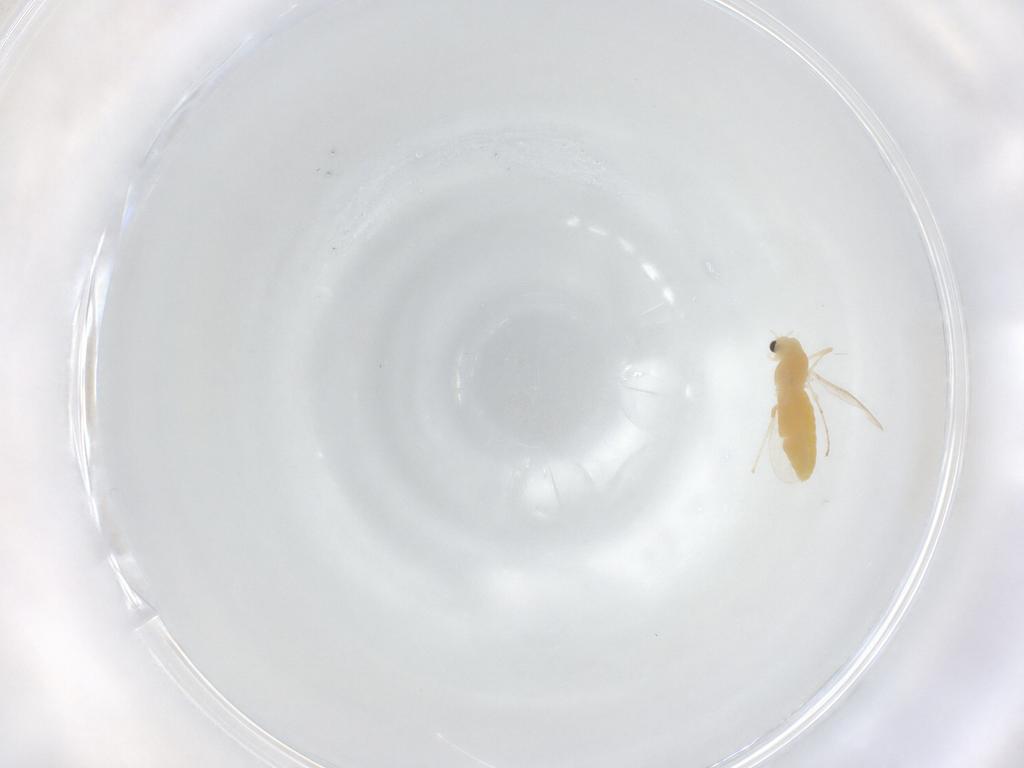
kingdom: Animalia
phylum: Arthropoda
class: Insecta
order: Diptera
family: Chironomidae
